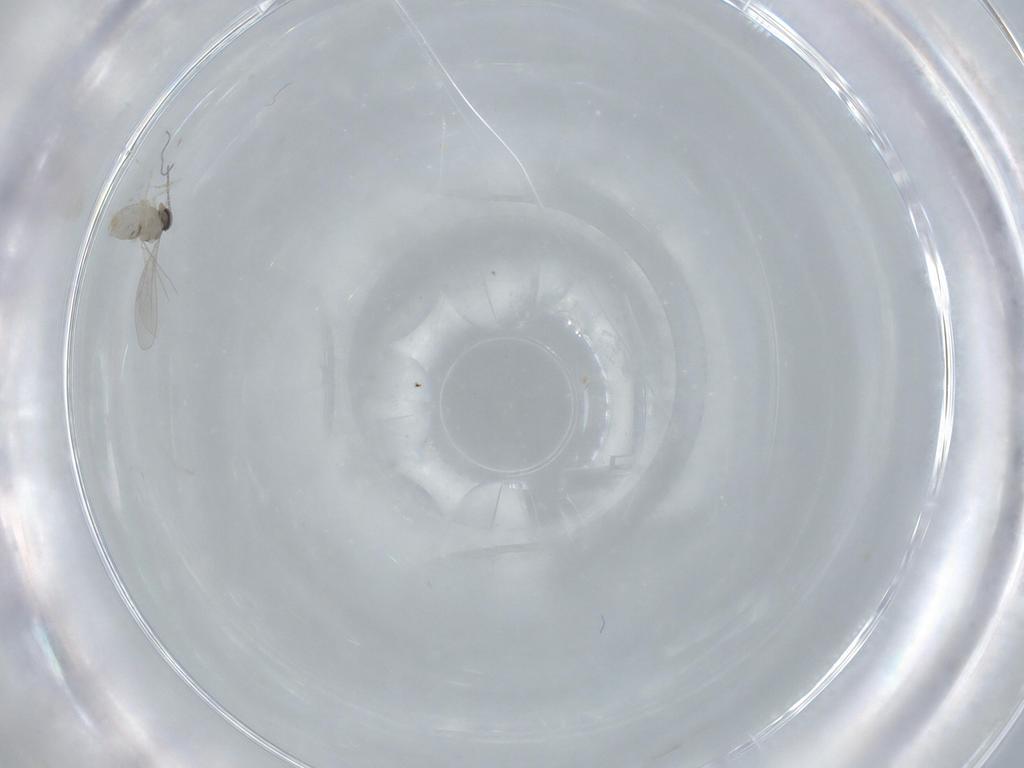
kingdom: Animalia
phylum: Arthropoda
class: Insecta
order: Diptera
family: Cecidomyiidae
